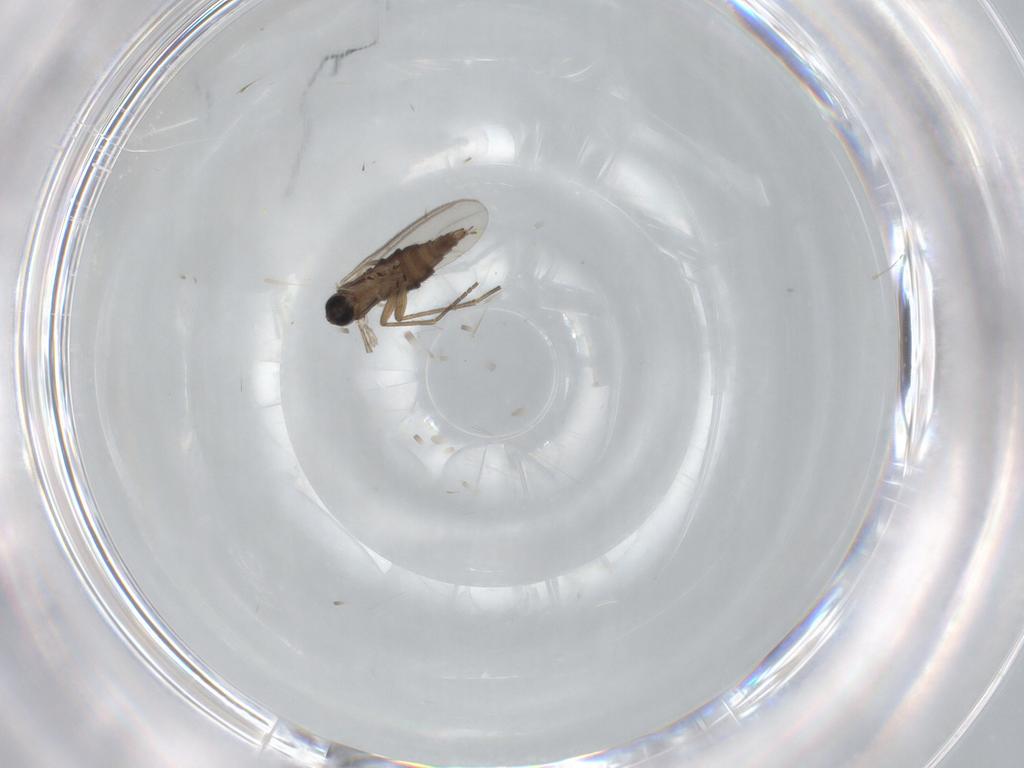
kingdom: Animalia
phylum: Arthropoda
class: Insecta
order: Diptera
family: Sciaridae
